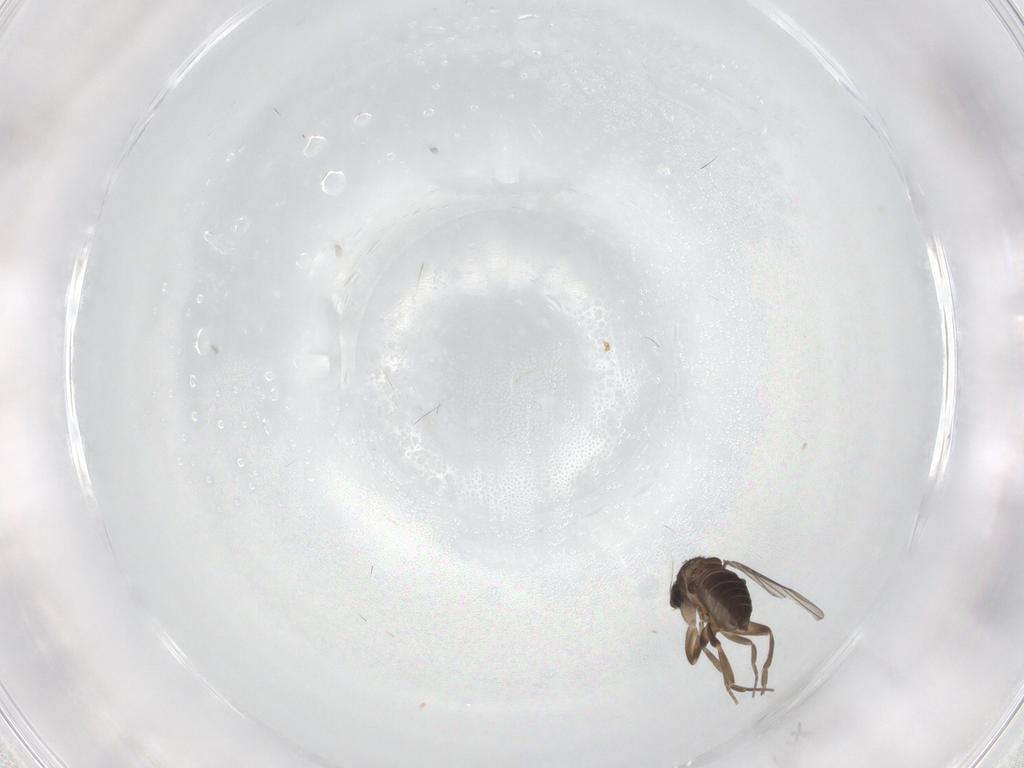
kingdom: Animalia
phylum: Arthropoda
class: Insecta
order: Diptera
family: Phoridae
